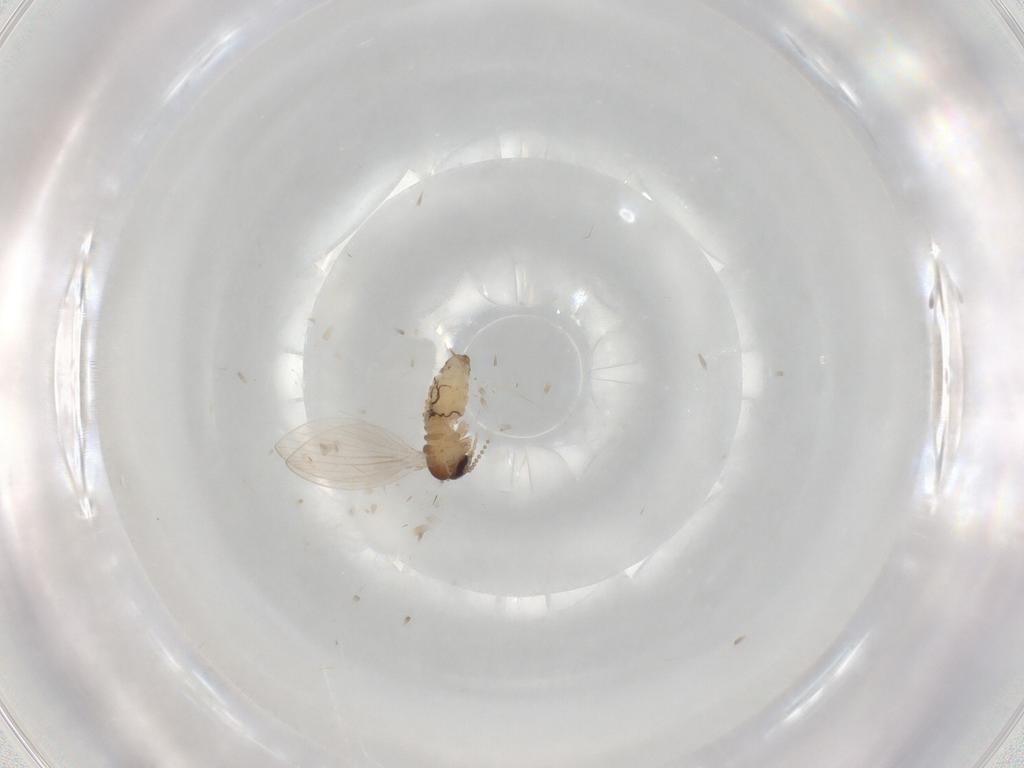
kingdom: Animalia
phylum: Arthropoda
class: Insecta
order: Diptera
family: Psychodidae
